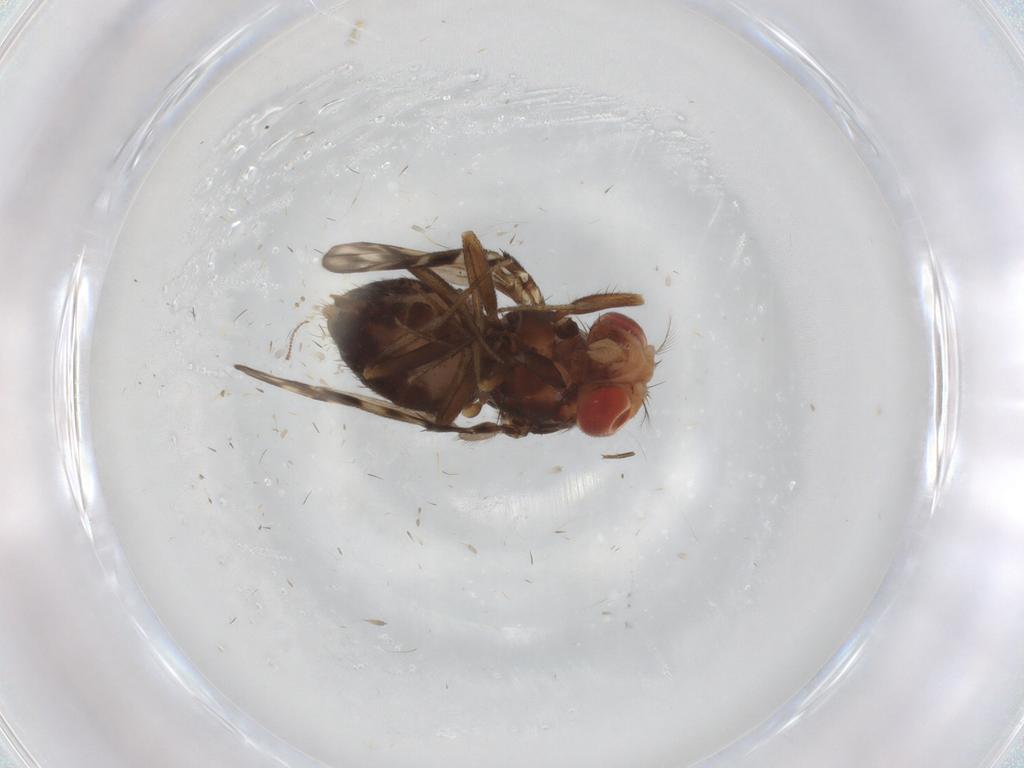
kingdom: Animalia
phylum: Arthropoda
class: Insecta
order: Diptera
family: Drosophilidae
